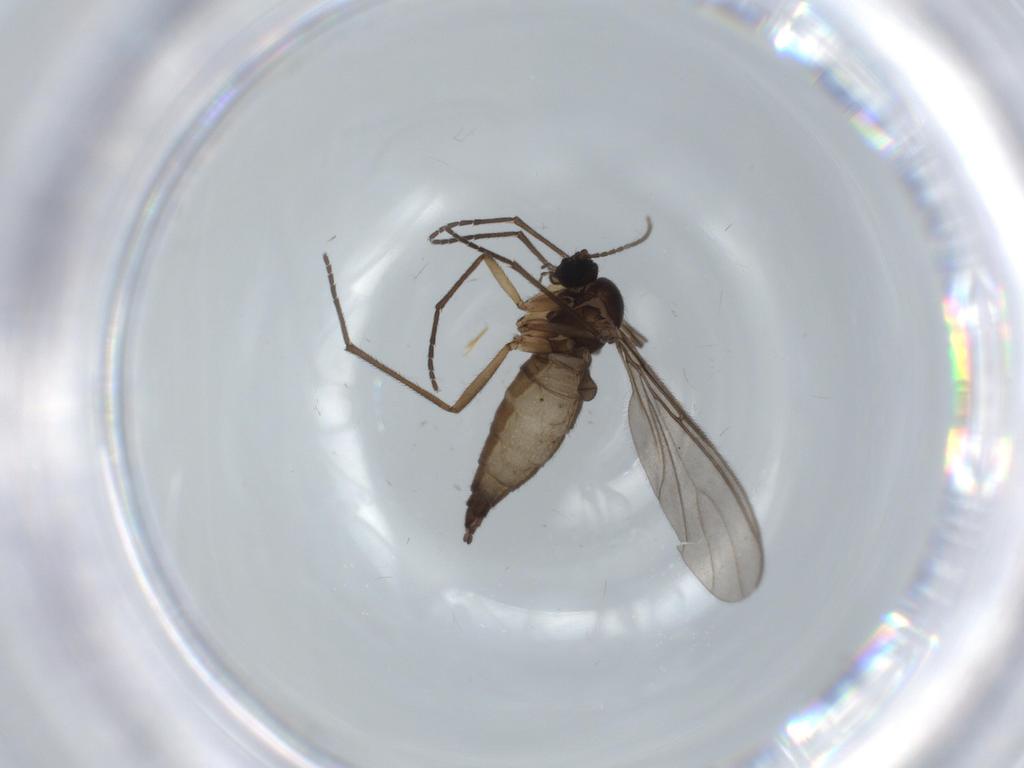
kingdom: Animalia
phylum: Arthropoda
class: Insecta
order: Diptera
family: Sciaridae
